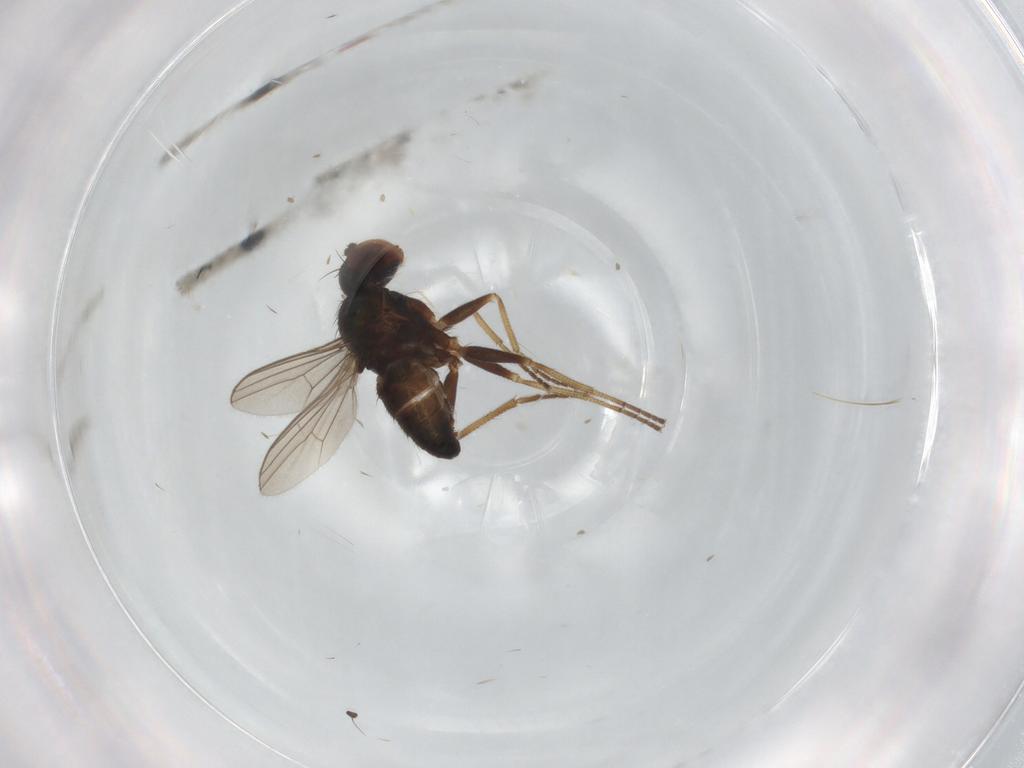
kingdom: Animalia
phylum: Arthropoda
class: Insecta
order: Diptera
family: Dolichopodidae
